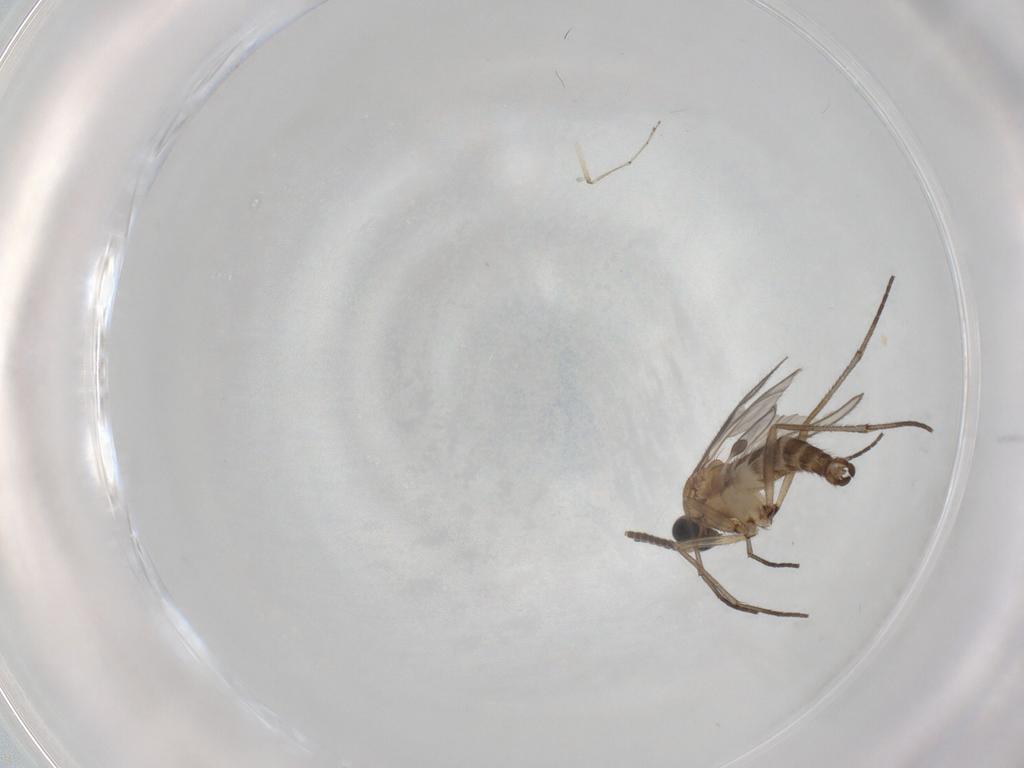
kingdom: Animalia
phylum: Arthropoda
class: Insecta
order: Diptera
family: Sciaridae
